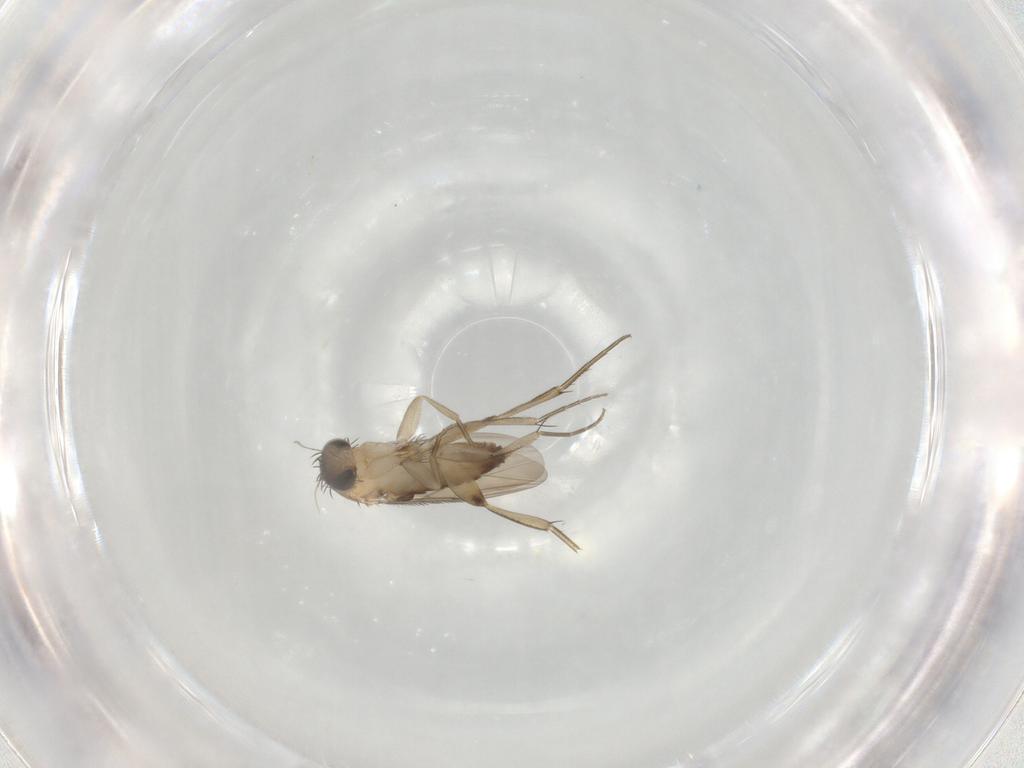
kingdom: Animalia
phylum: Arthropoda
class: Insecta
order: Diptera
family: Phoridae
